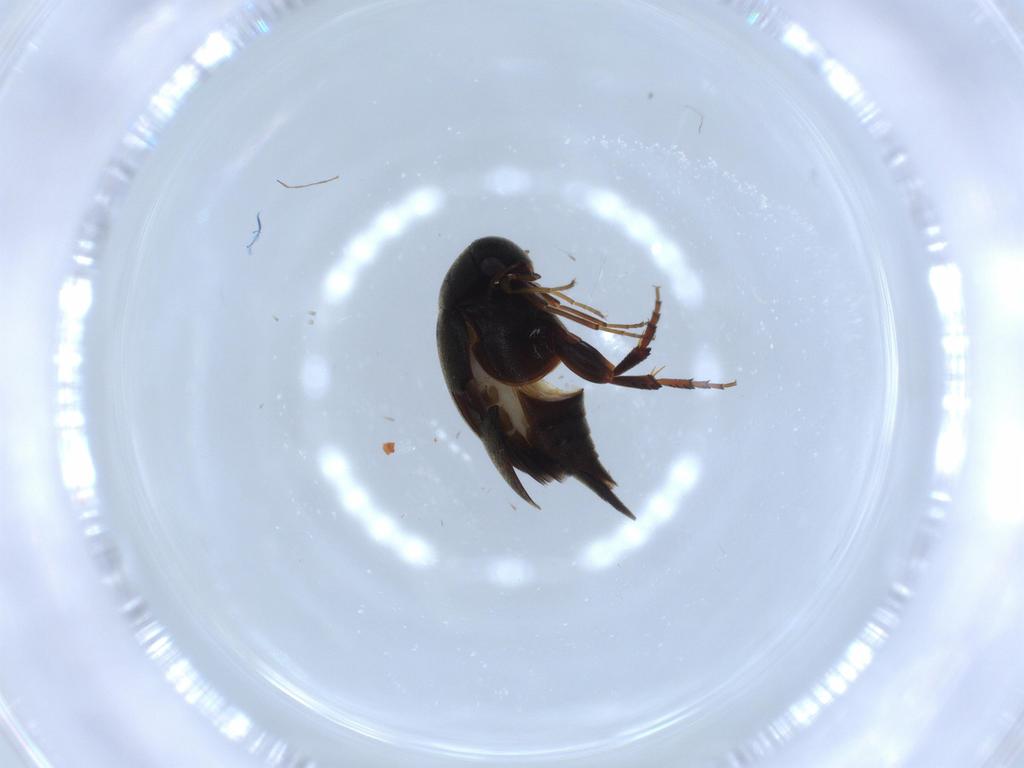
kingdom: Animalia
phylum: Arthropoda
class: Insecta
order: Coleoptera
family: Mordellidae
